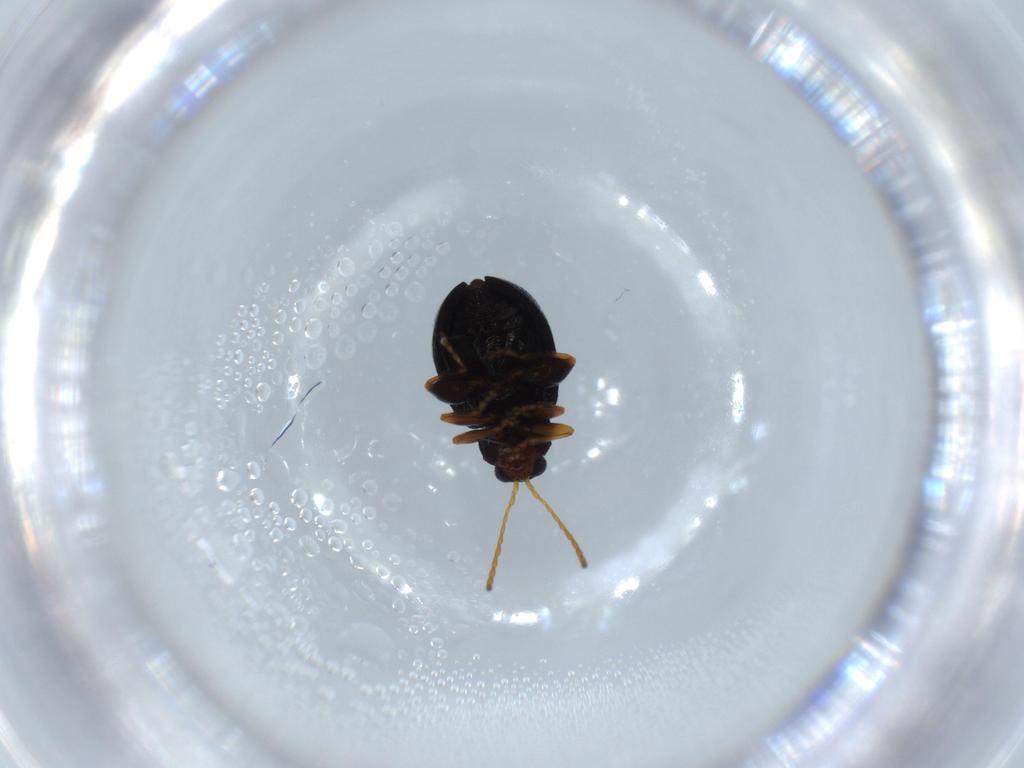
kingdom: Animalia
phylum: Arthropoda
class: Insecta
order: Coleoptera
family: Chrysomelidae
